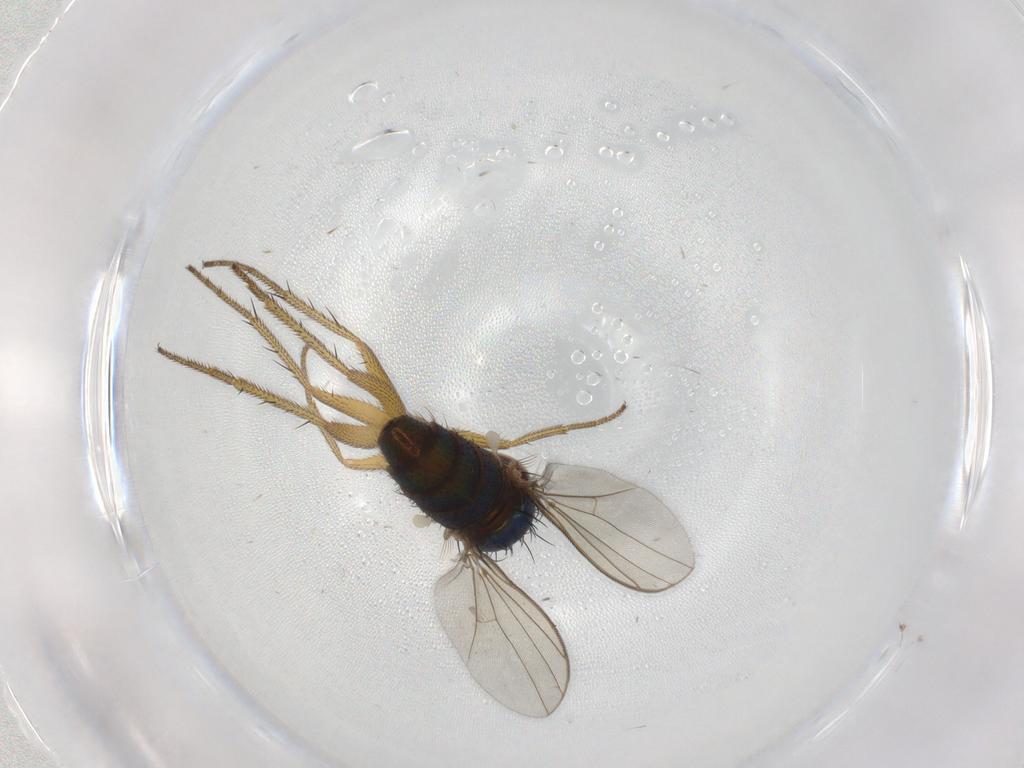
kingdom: Animalia
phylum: Arthropoda
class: Insecta
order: Diptera
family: Dolichopodidae
